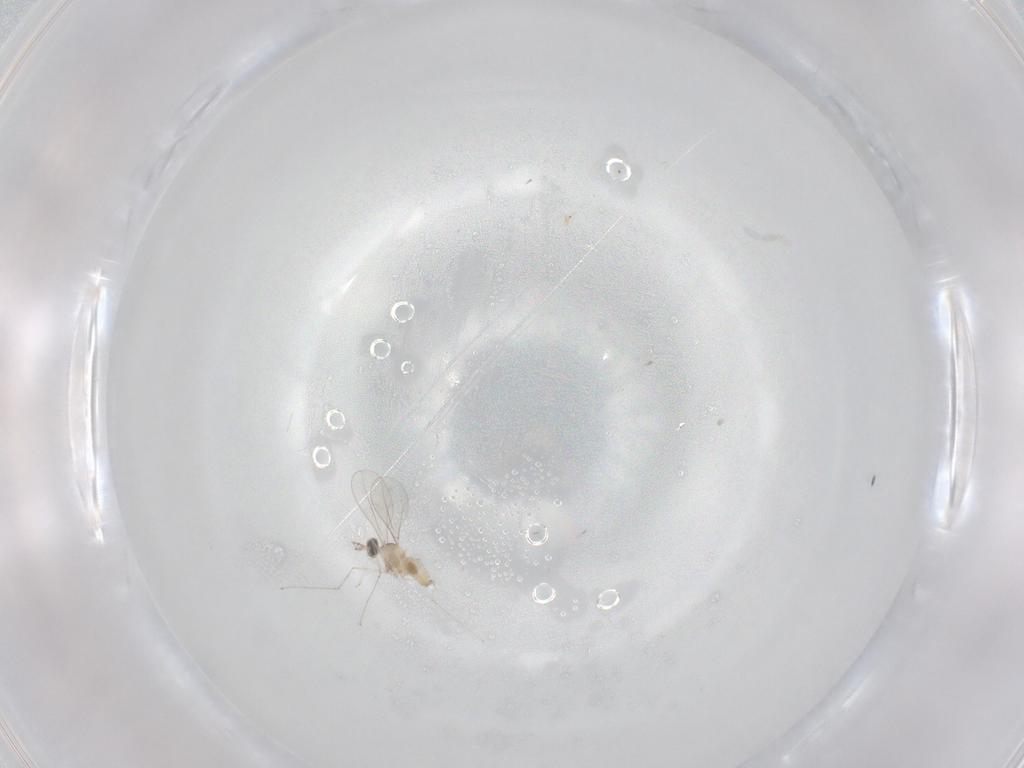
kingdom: Animalia
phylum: Arthropoda
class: Insecta
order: Diptera
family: Cecidomyiidae
